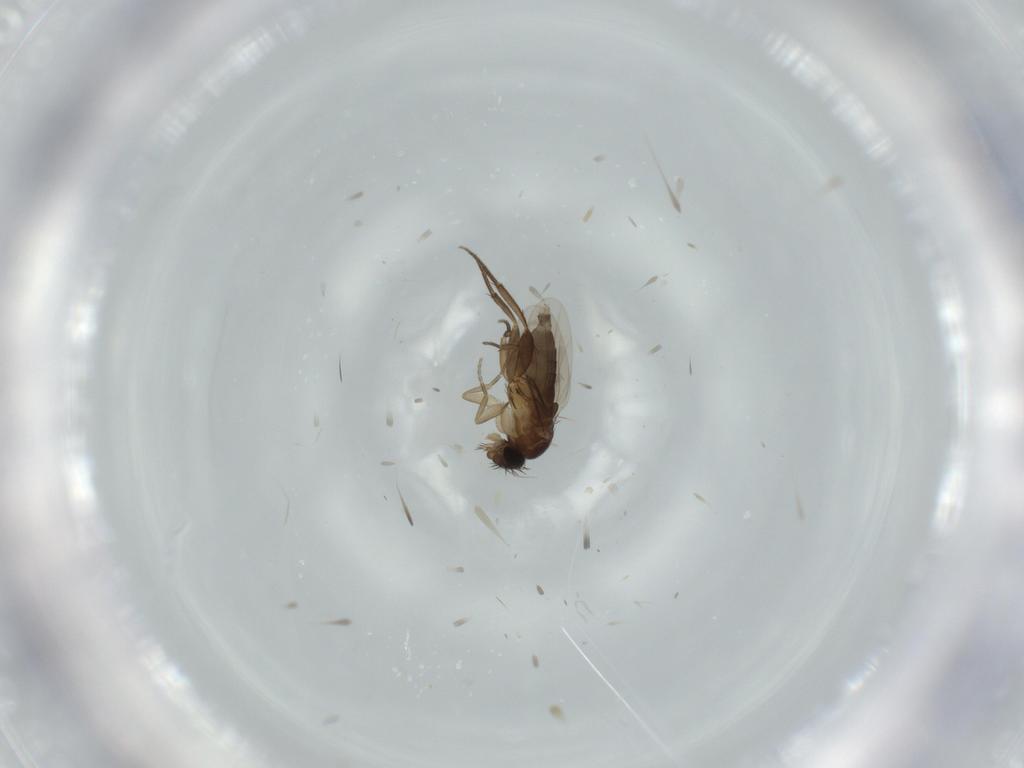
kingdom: Animalia
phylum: Arthropoda
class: Insecta
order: Diptera
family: Phoridae
